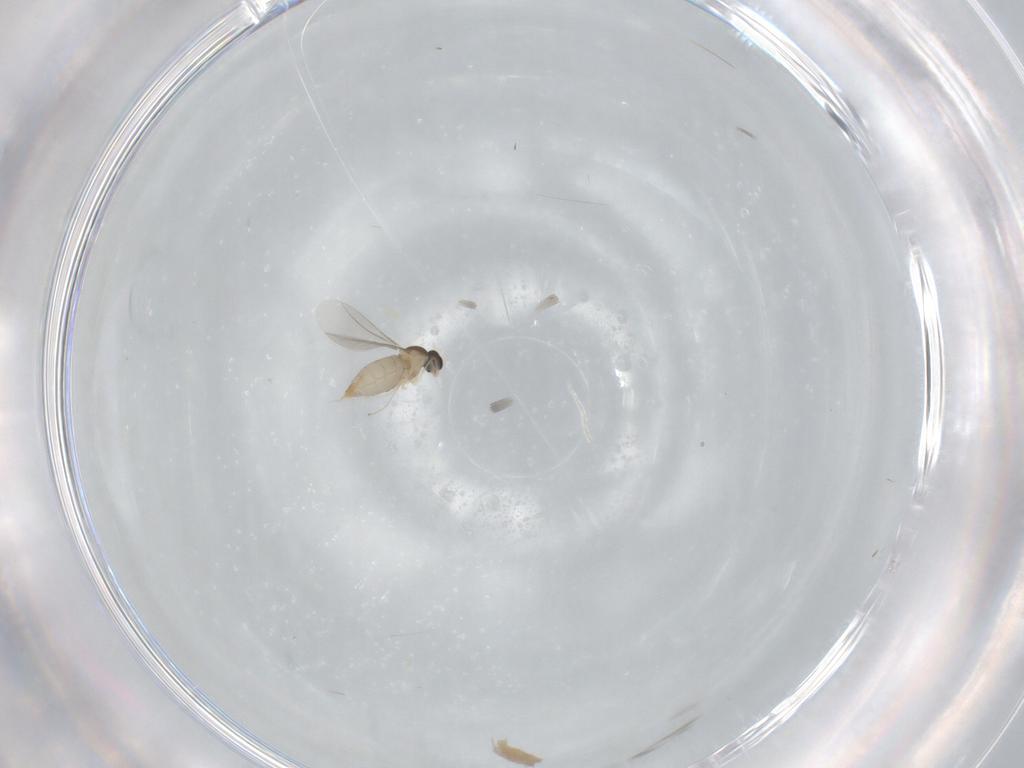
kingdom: Animalia
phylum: Arthropoda
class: Insecta
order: Diptera
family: Cecidomyiidae
